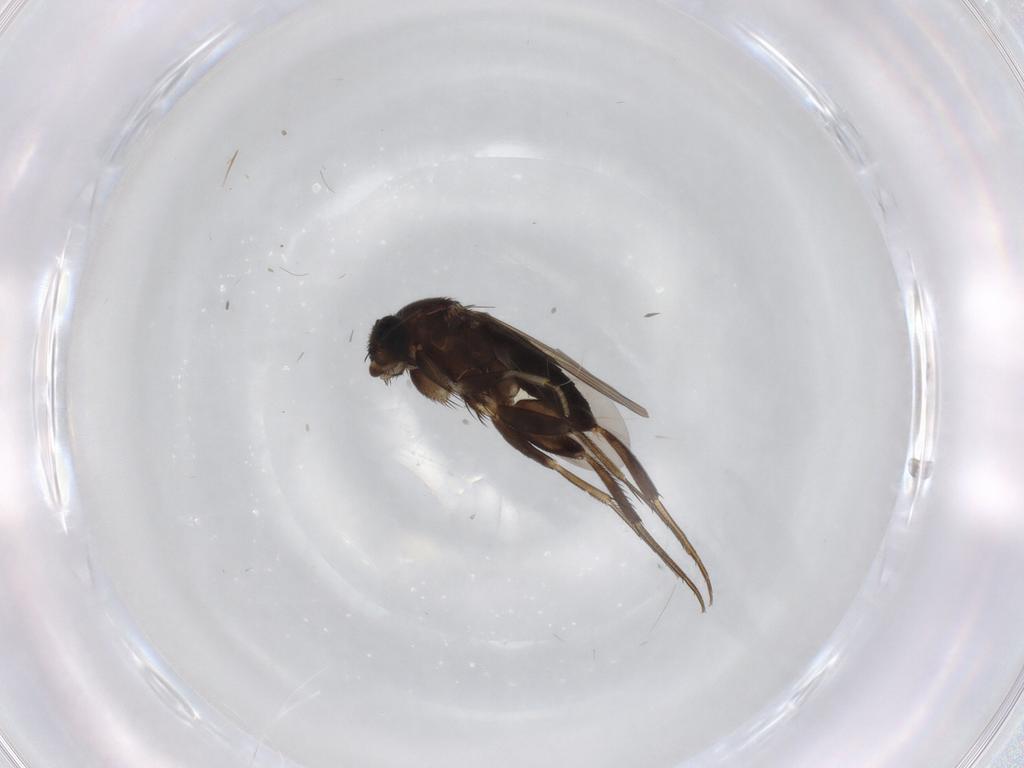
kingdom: Animalia
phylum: Arthropoda
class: Insecta
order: Diptera
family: Phoridae
